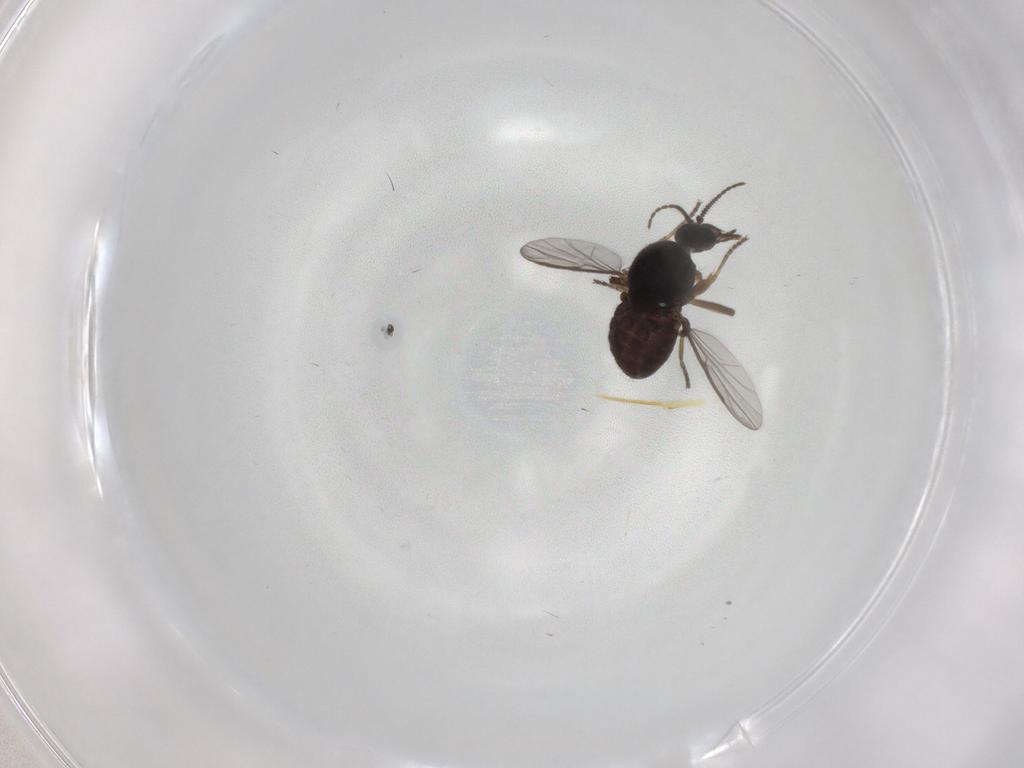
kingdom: Animalia
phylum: Arthropoda
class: Insecta
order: Diptera
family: Ceratopogonidae
